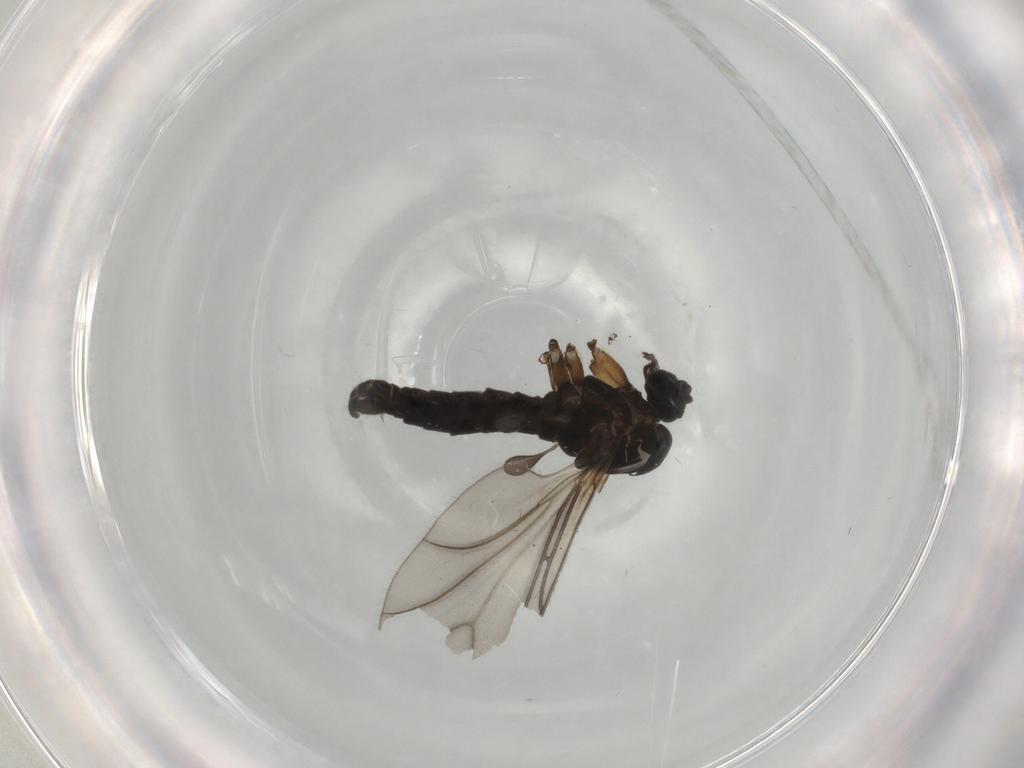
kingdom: Animalia
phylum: Arthropoda
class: Insecta
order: Diptera
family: Sciaridae
